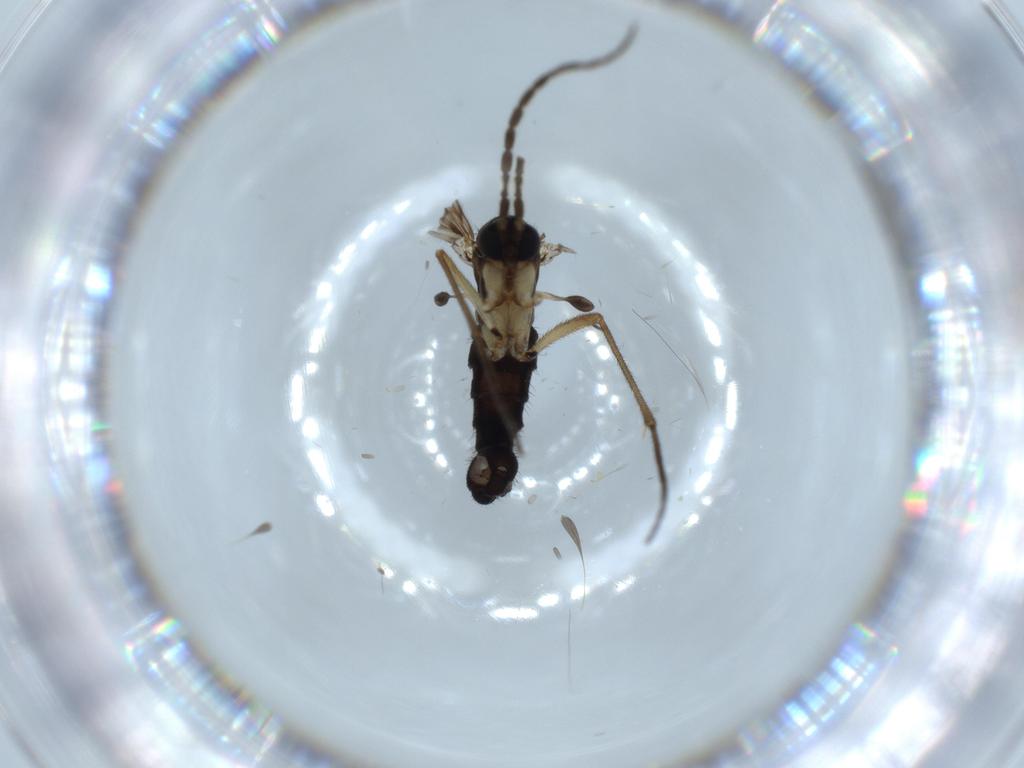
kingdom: Animalia
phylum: Arthropoda
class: Insecta
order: Diptera
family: Sciaridae
